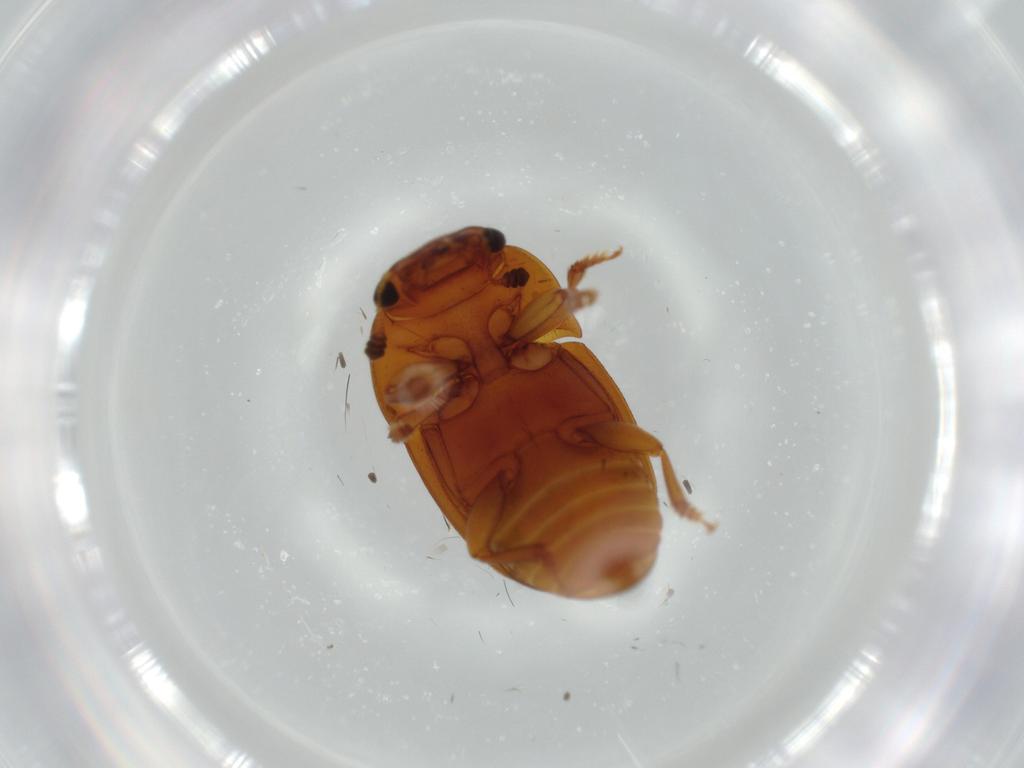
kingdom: Animalia
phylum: Arthropoda
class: Insecta
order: Coleoptera
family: Nitidulidae
